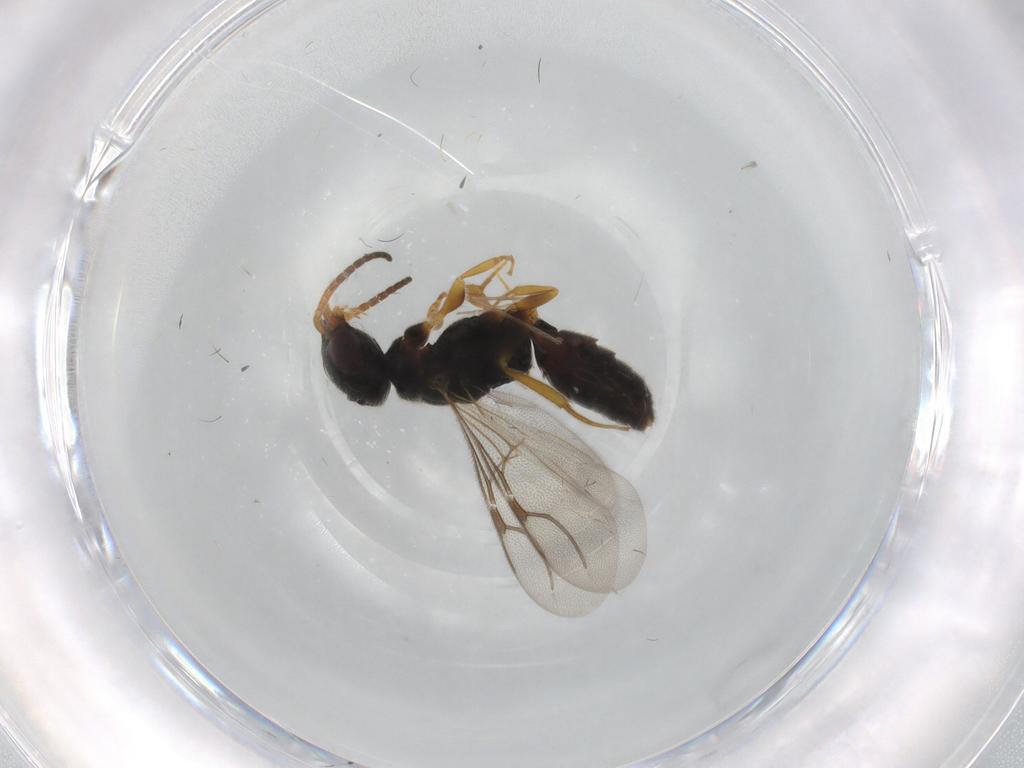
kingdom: Animalia
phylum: Arthropoda
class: Insecta
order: Hymenoptera
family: Bethylidae
